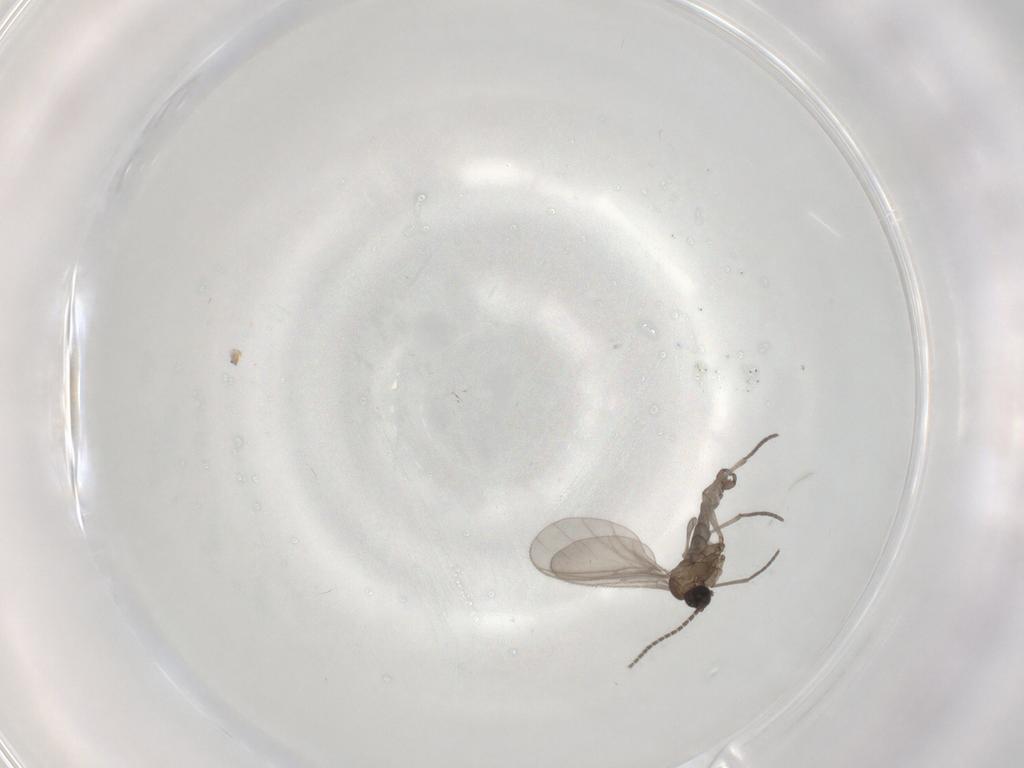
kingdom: Animalia
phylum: Arthropoda
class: Insecta
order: Diptera
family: Sciaridae
